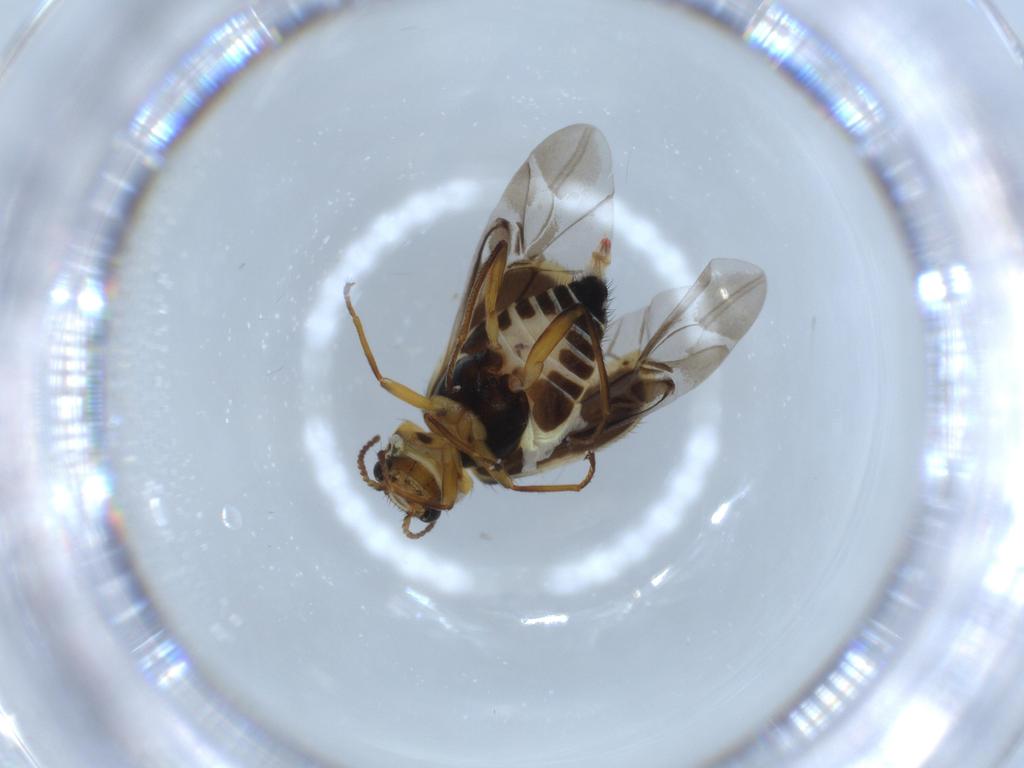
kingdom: Animalia
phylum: Arthropoda
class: Insecta
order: Coleoptera
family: Melyridae
